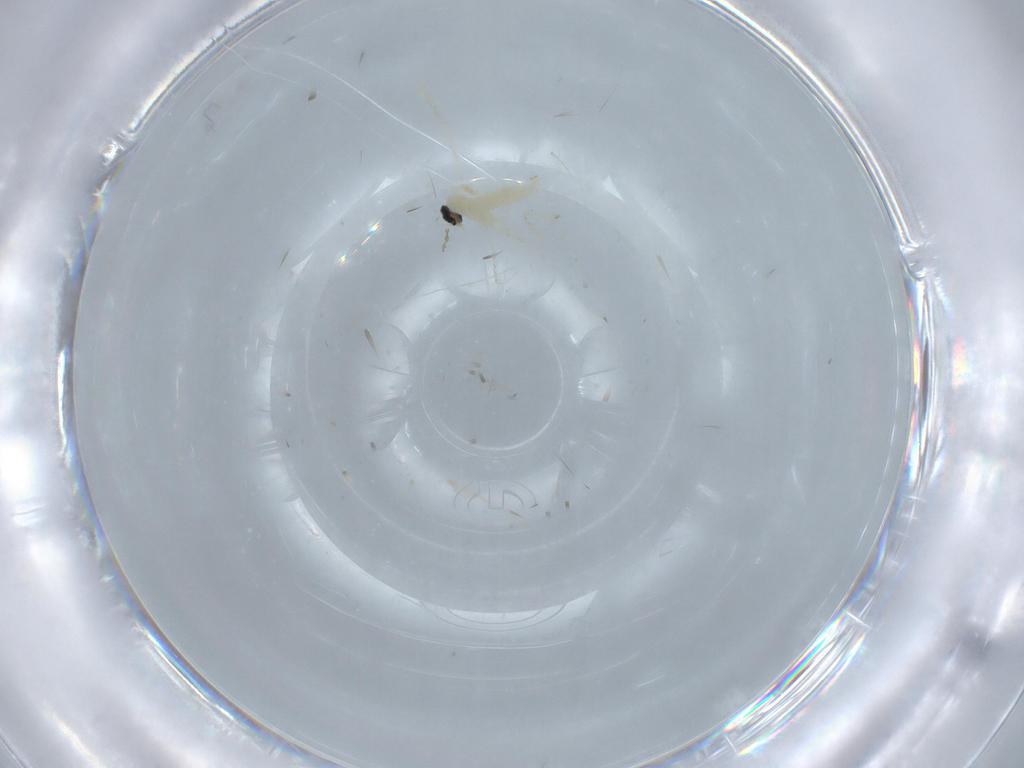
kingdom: Animalia
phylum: Arthropoda
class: Insecta
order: Diptera
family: Cecidomyiidae
